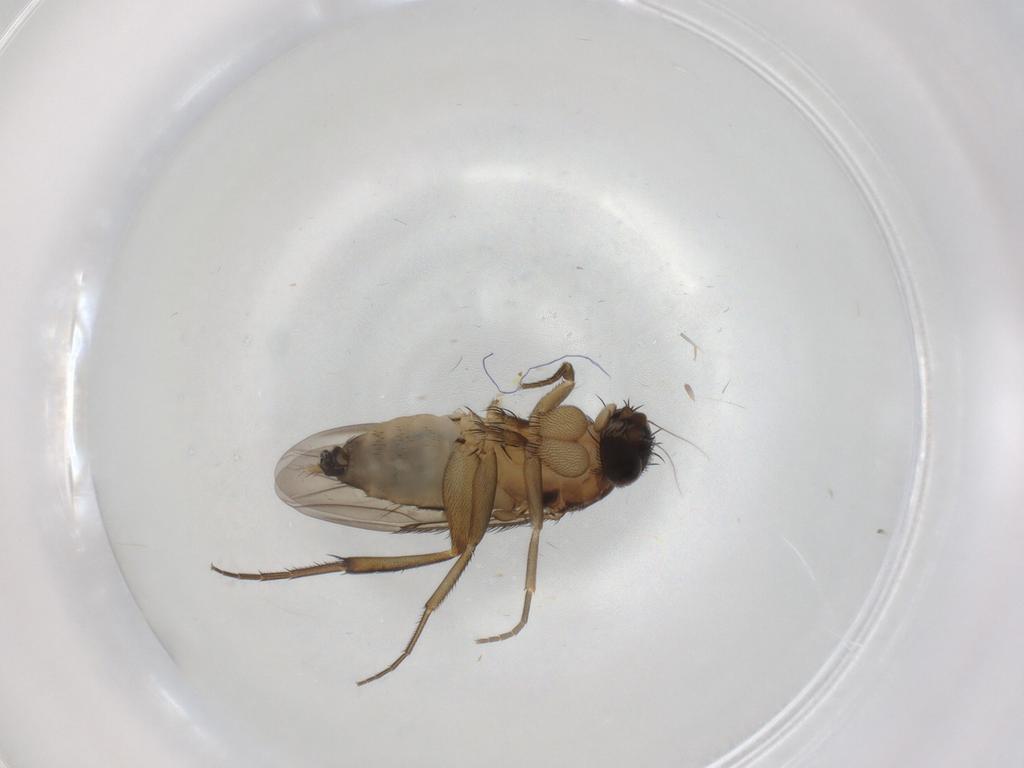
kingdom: Animalia
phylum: Arthropoda
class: Insecta
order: Diptera
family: Phoridae
